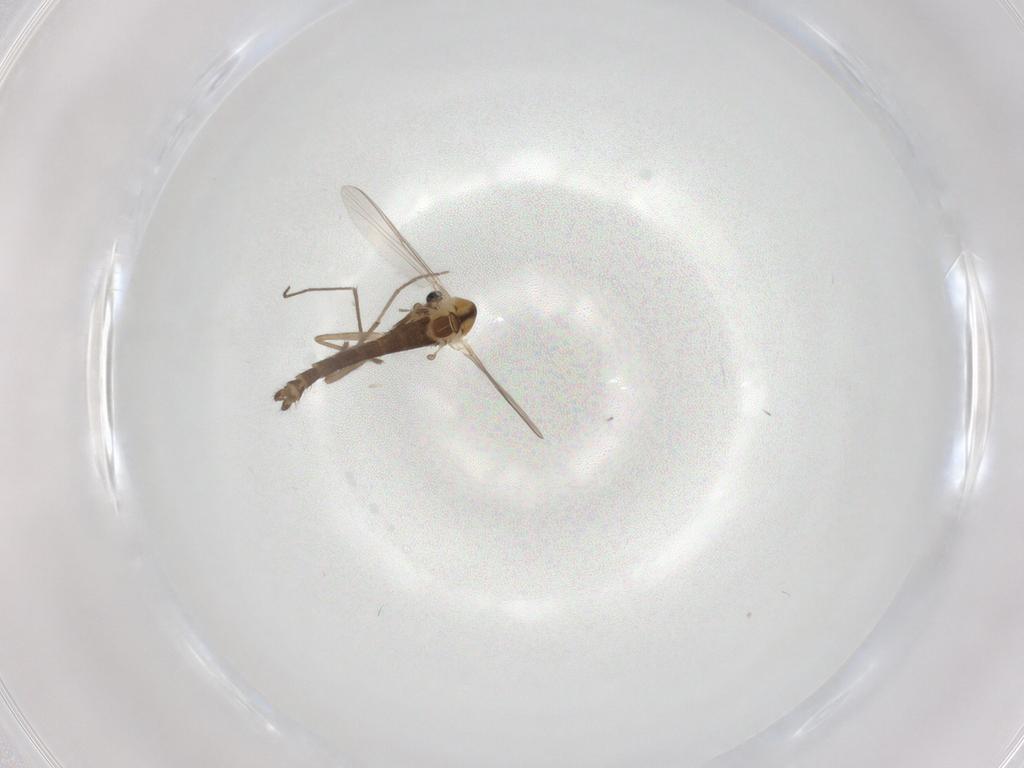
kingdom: Animalia
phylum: Arthropoda
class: Insecta
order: Diptera
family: Chironomidae
